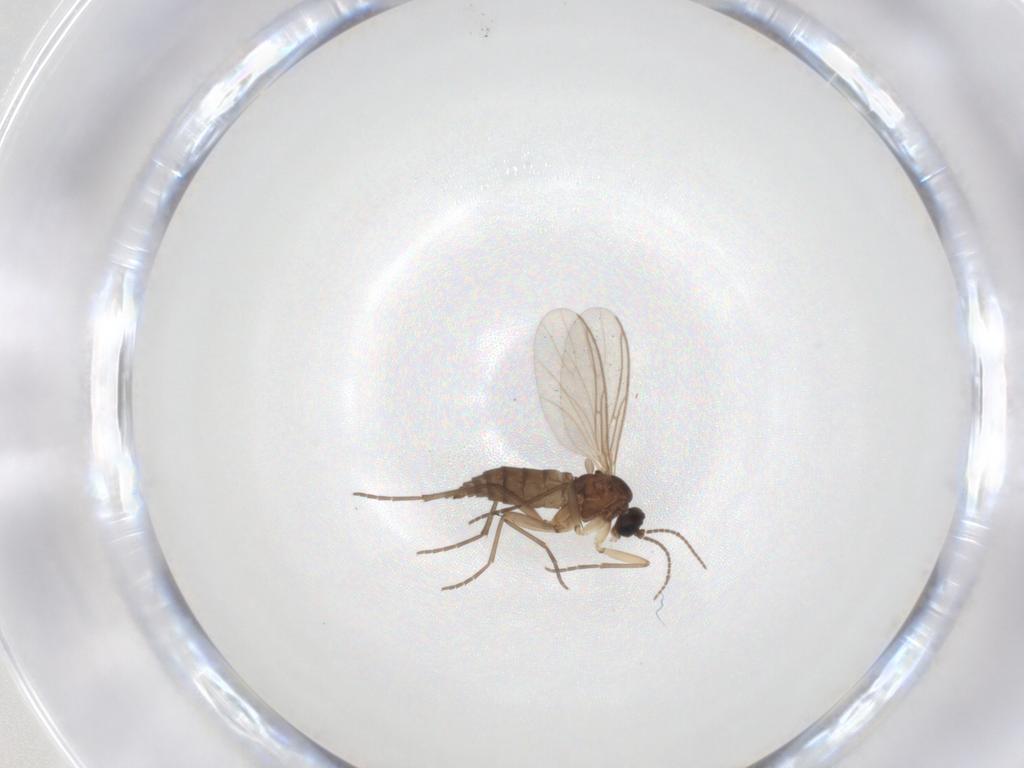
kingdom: Animalia
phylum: Arthropoda
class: Insecta
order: Diptera
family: Sciaridae
